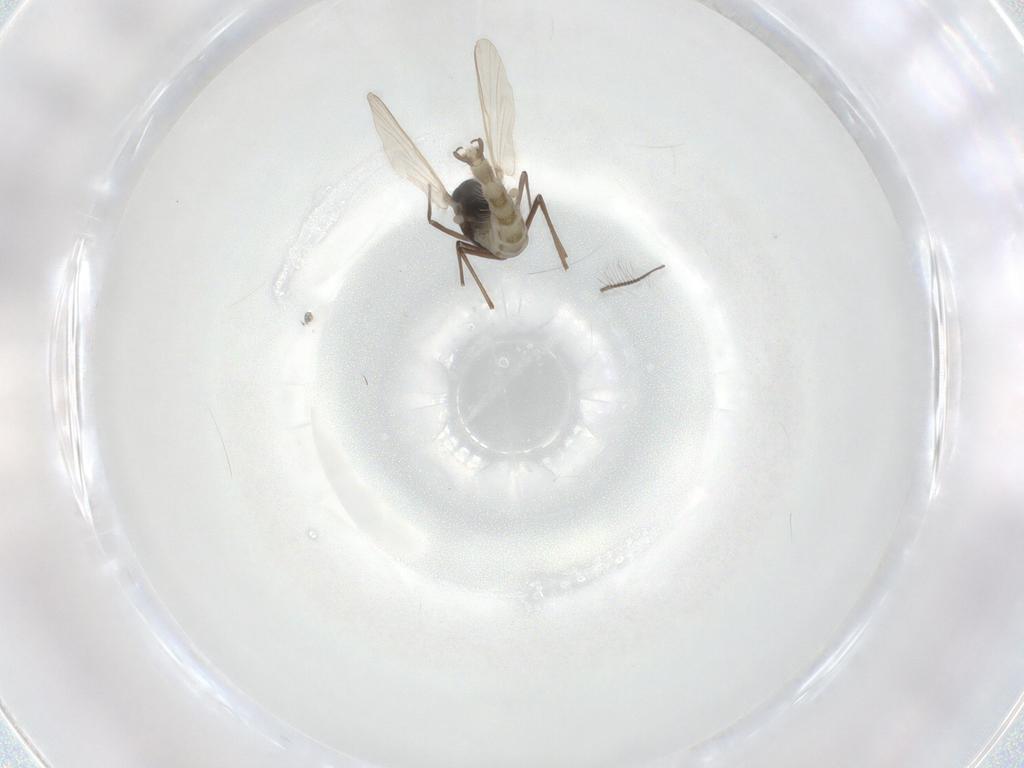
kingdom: Animalia
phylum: Arthropoda
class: Insecta
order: Diptera
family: Chironomidae
